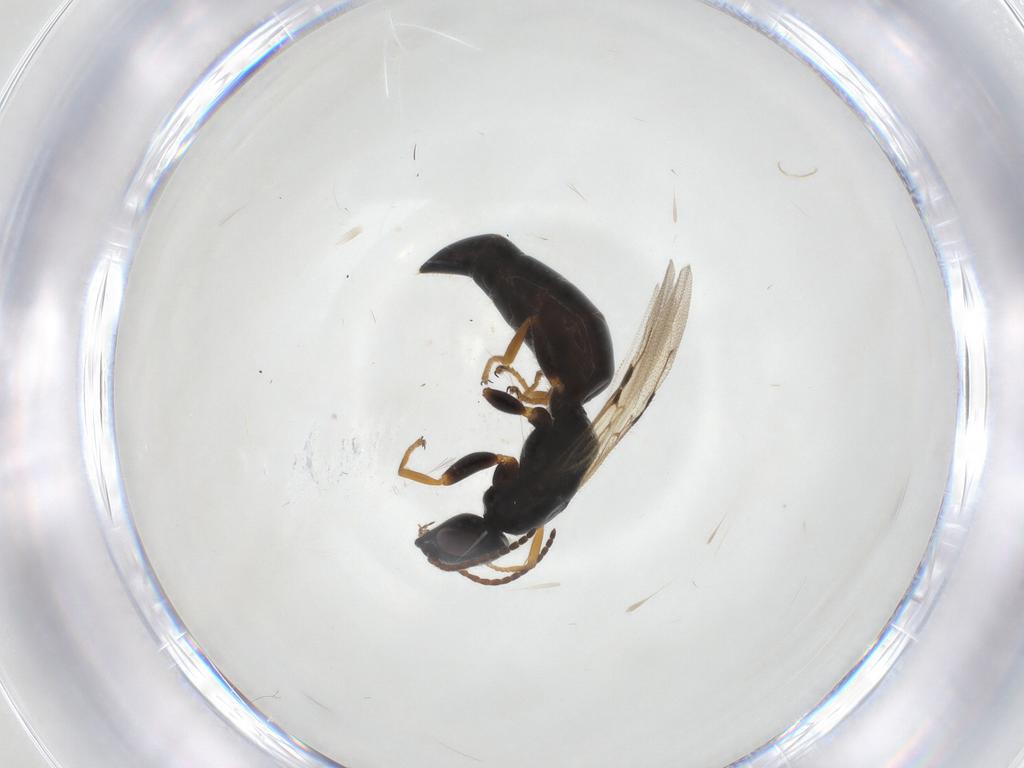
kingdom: Animalia
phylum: Arthropoda
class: Insecta
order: Hymenoptera
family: Bethylidae
